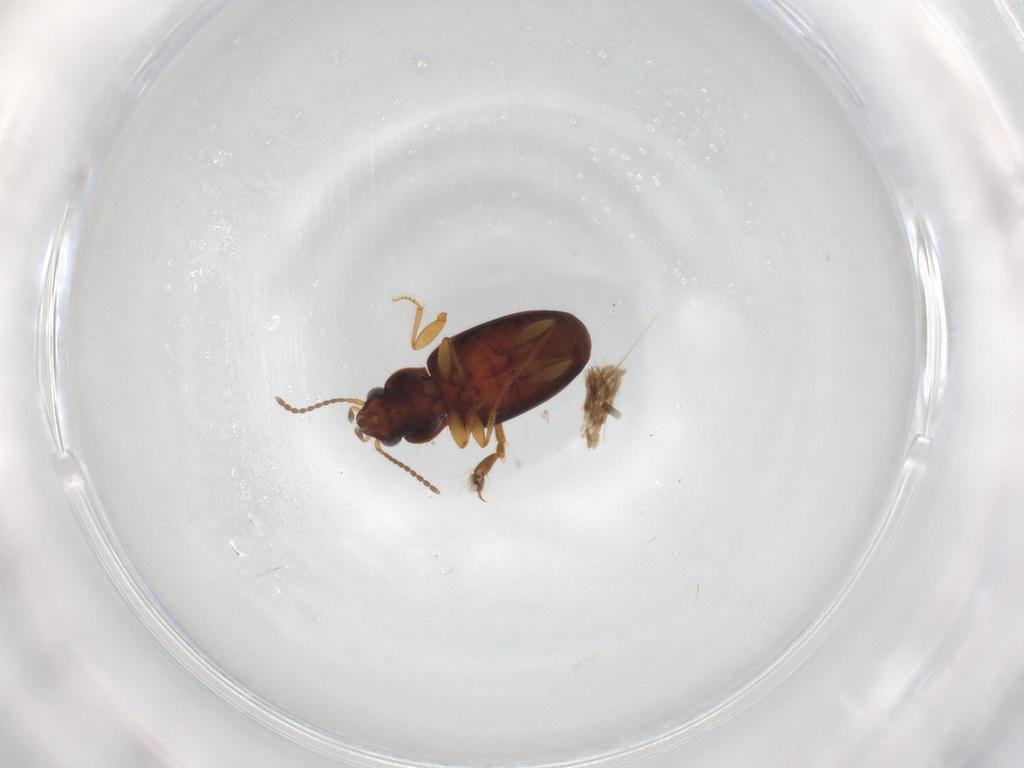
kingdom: Animalia
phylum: Arthropoda
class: Insecta
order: Coleoptera
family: Carabidae
